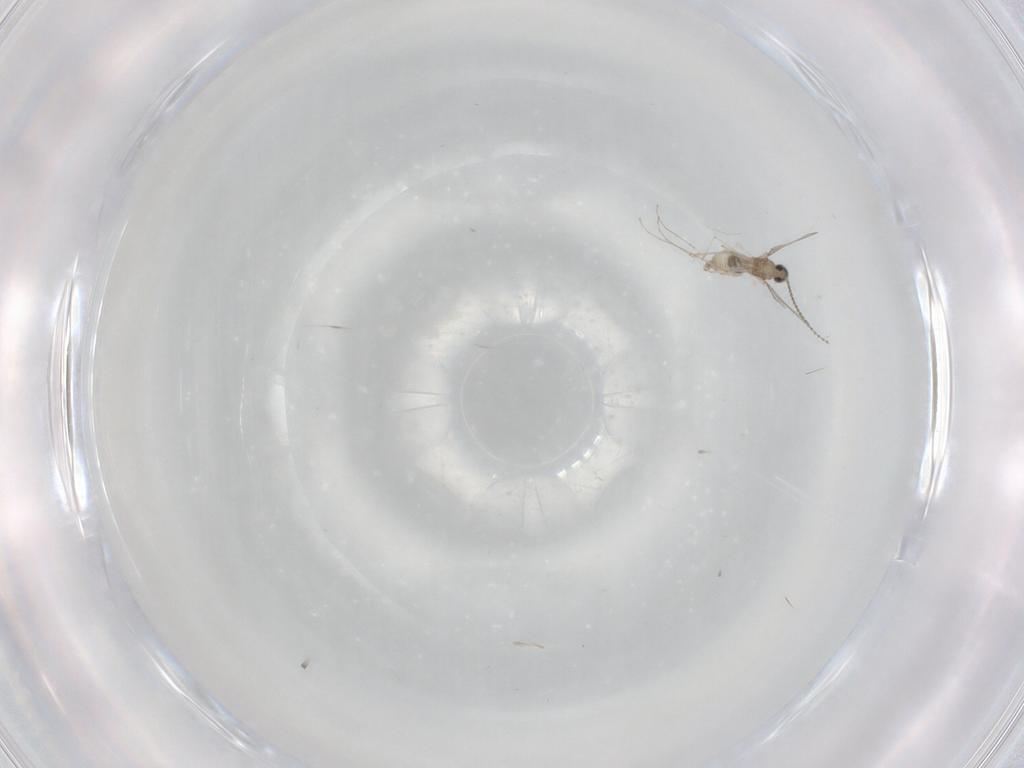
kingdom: Animalia
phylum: Arthropoda
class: Insecta
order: Diptera
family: Cecidomyiidae
